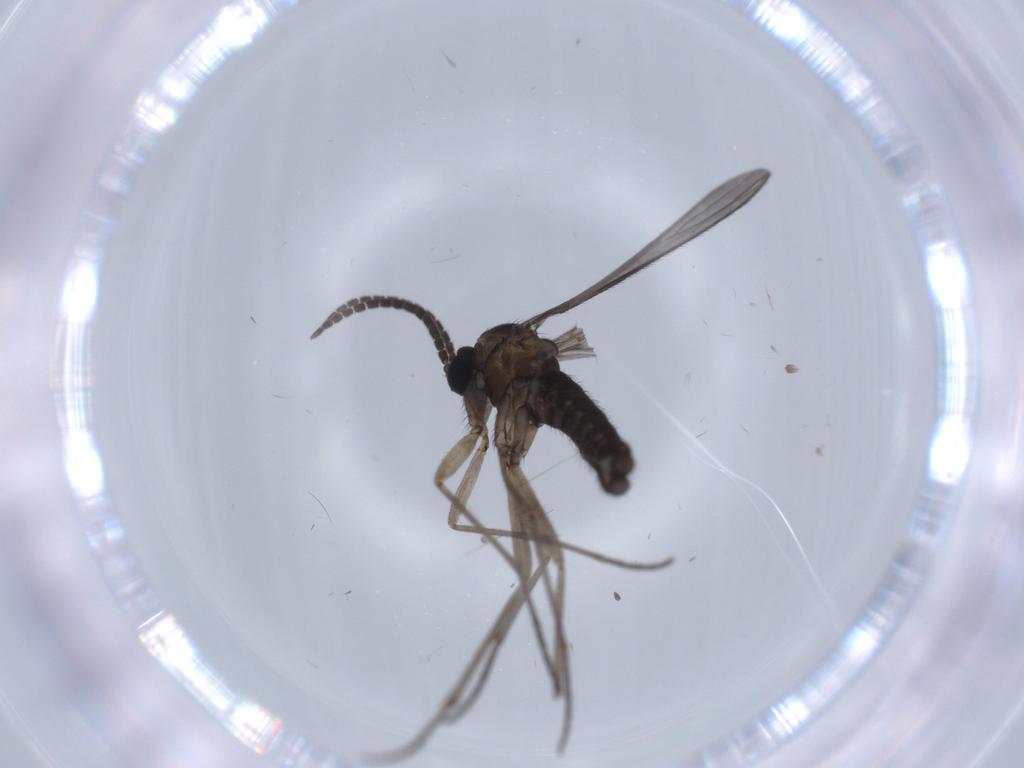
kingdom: Animalia
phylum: Arthropoda
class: Insecta
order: Diptera
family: Sciaridae
